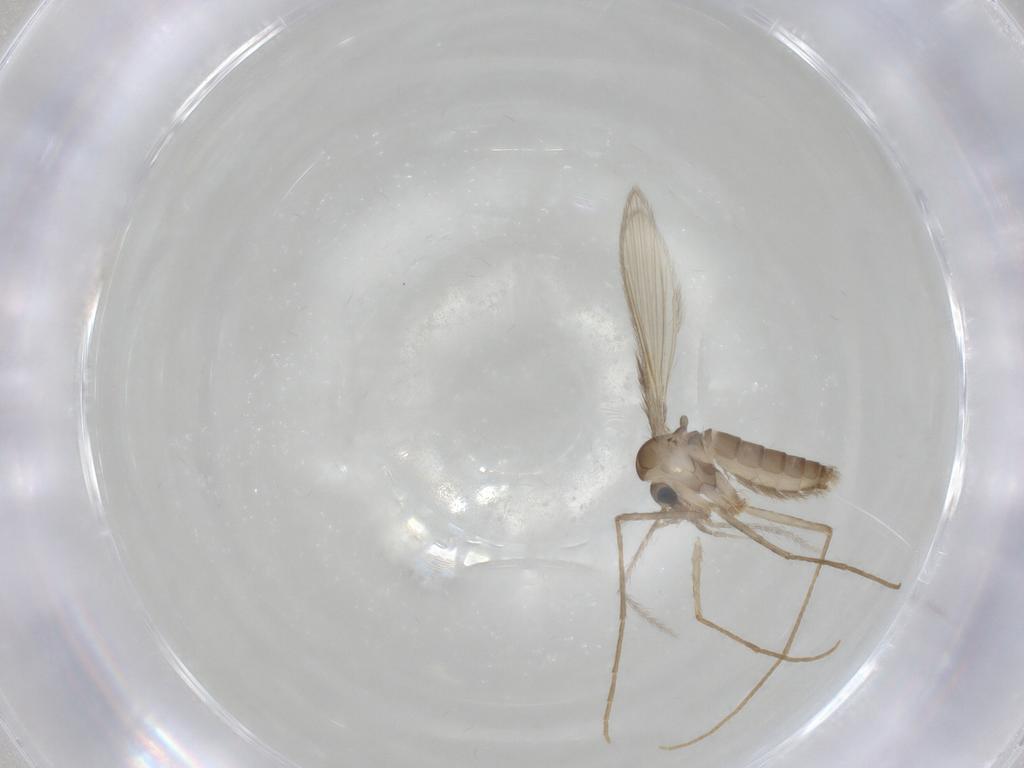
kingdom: Animalia
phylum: Arthropoda
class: Insecta
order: Diptera
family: Psychodidae
